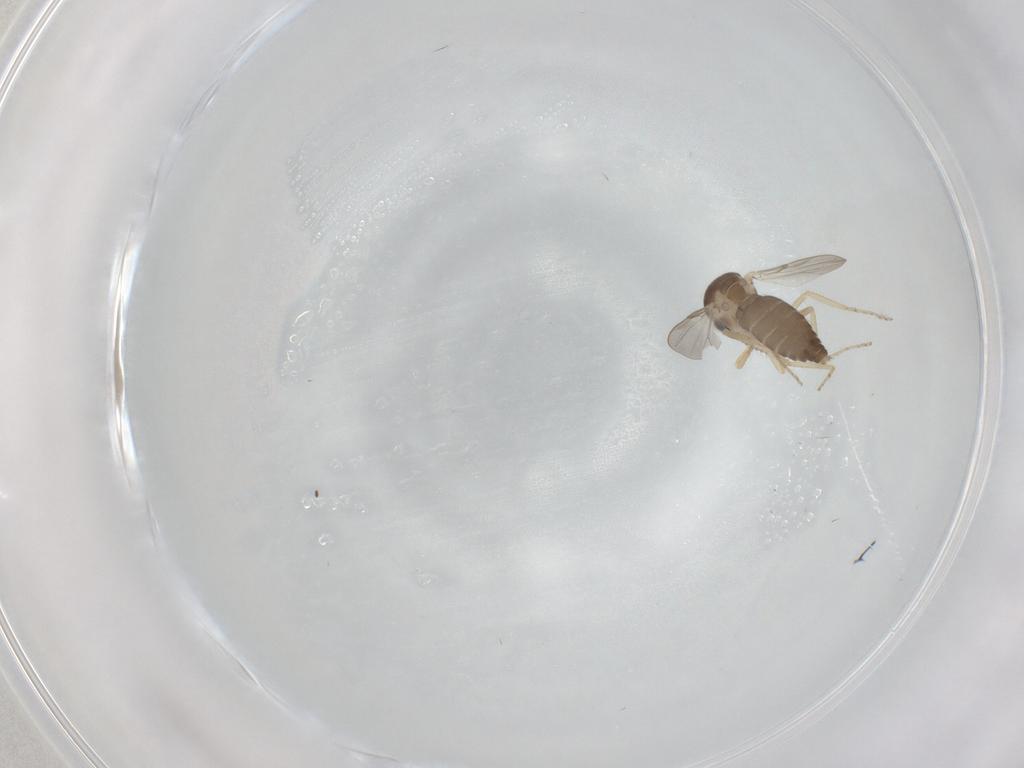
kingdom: Animalia
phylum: Arthropoda
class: Insecta
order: Diptera
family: Ceratopogonidae
